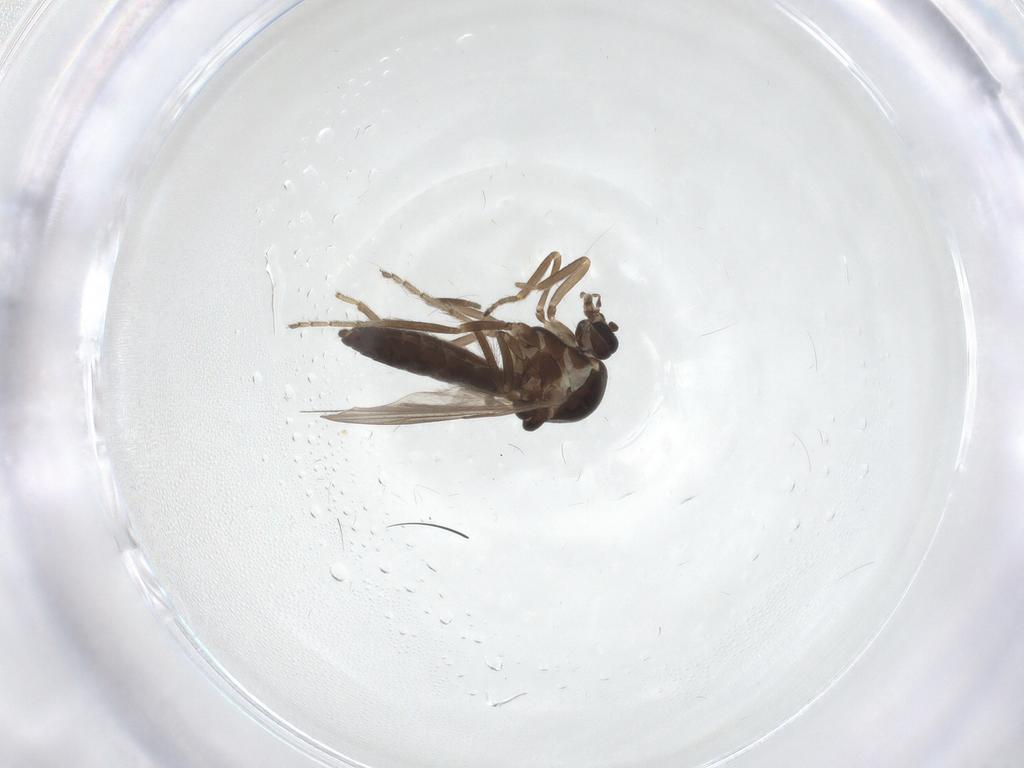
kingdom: Animalia
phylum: Arthropoda
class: Insecta
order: Diptera
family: Ceratopogonidae
